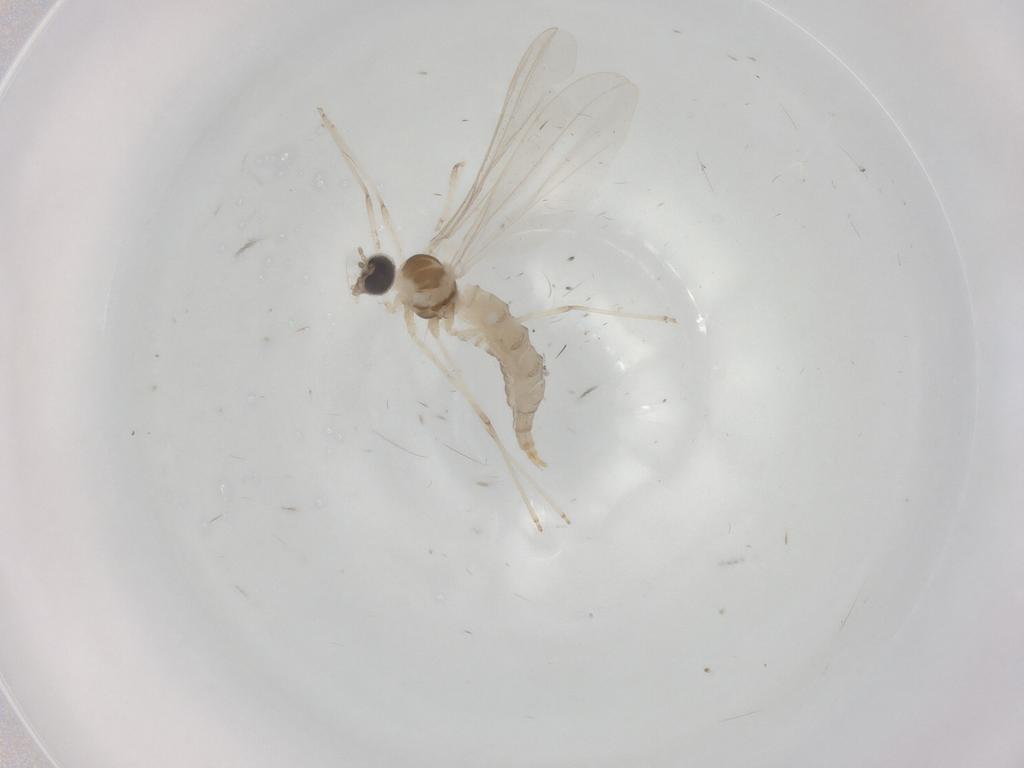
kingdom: Animalia
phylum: Arthropoda
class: Insecta
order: Diptera
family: Cecidomyiidae
